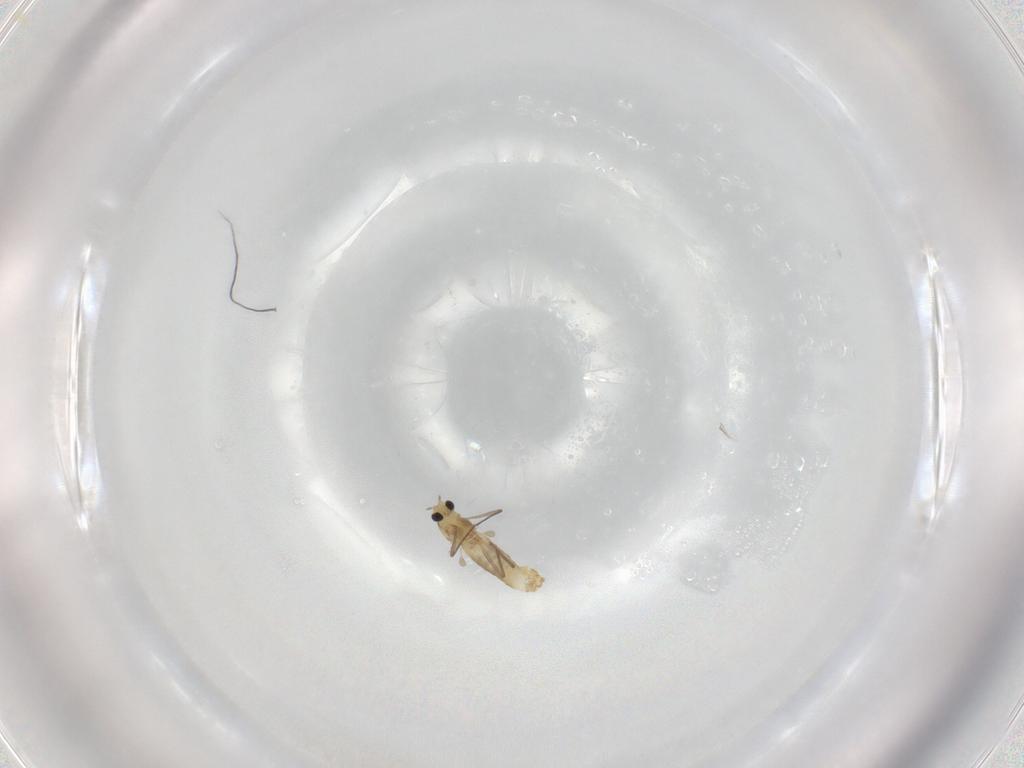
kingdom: Animalia
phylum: Arthropoda
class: Insecta
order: Diptera
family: Chironomidae
